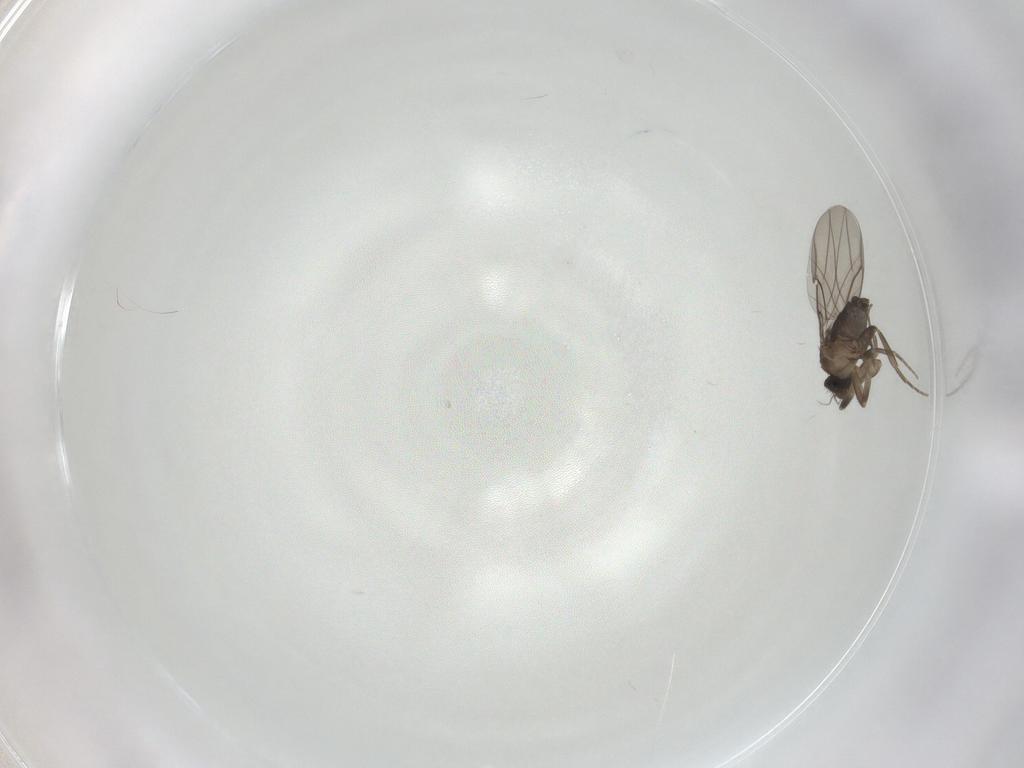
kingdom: Animalia
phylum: Arthropoda
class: Insecta
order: Diptera
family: Phoridae
